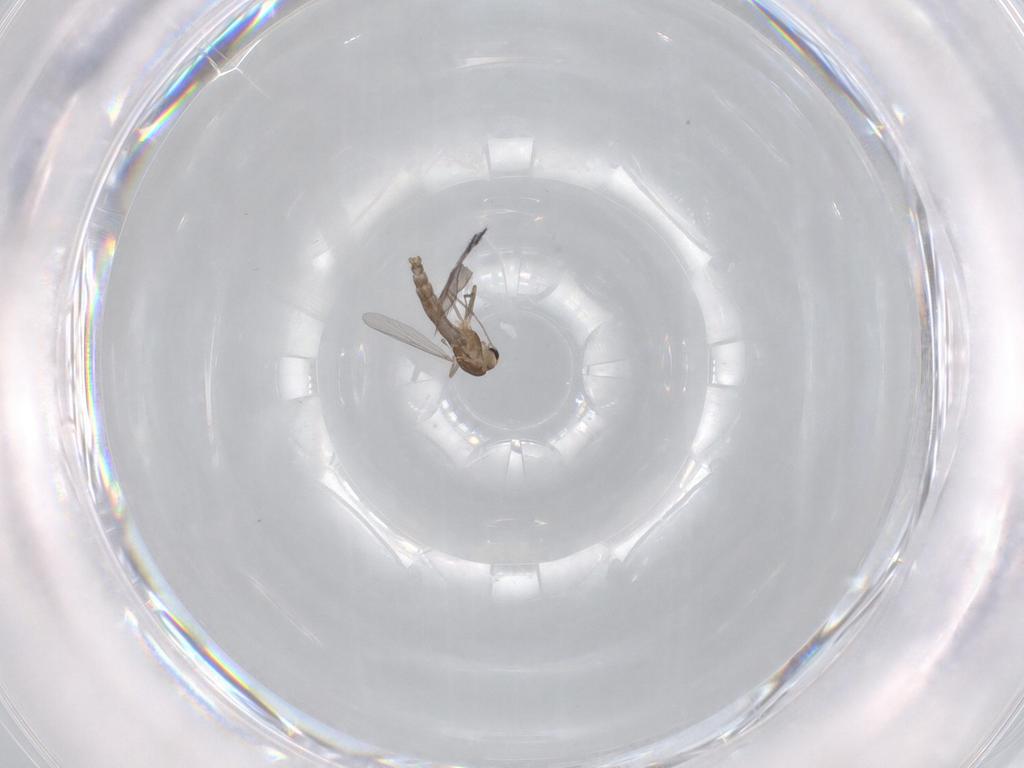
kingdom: Animalia
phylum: Arthropoda
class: Insecta
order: Diptera
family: Chironomidae
